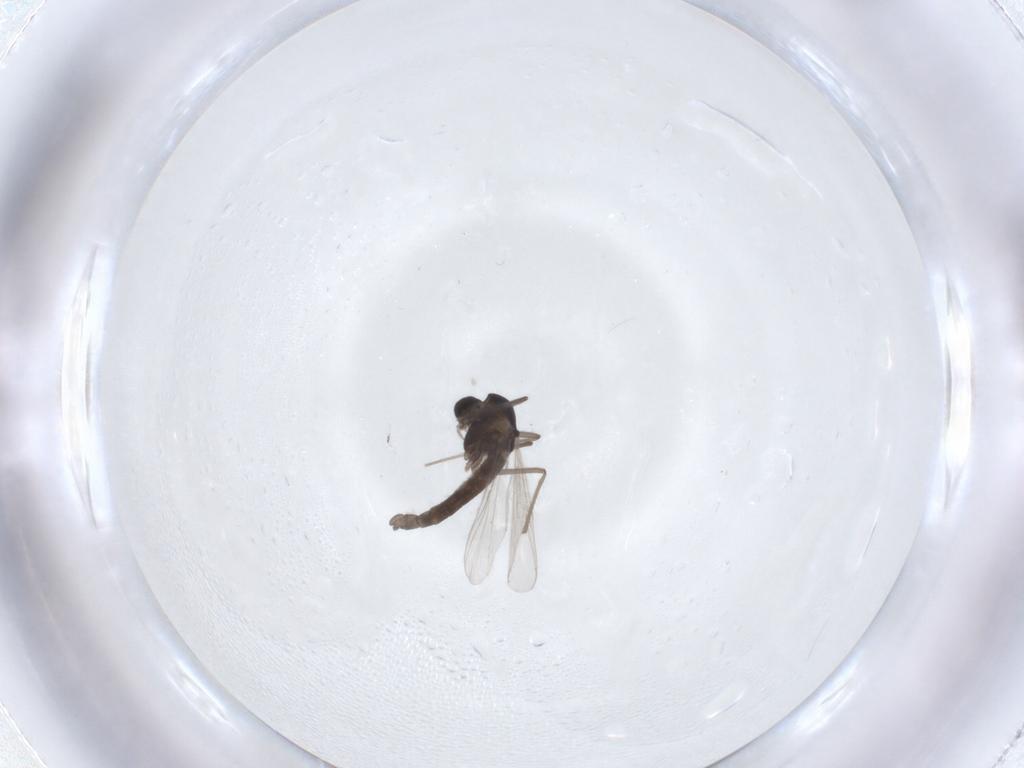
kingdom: Animalia
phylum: Arthropoda
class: Insecta
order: Diptera
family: Chironomidae
